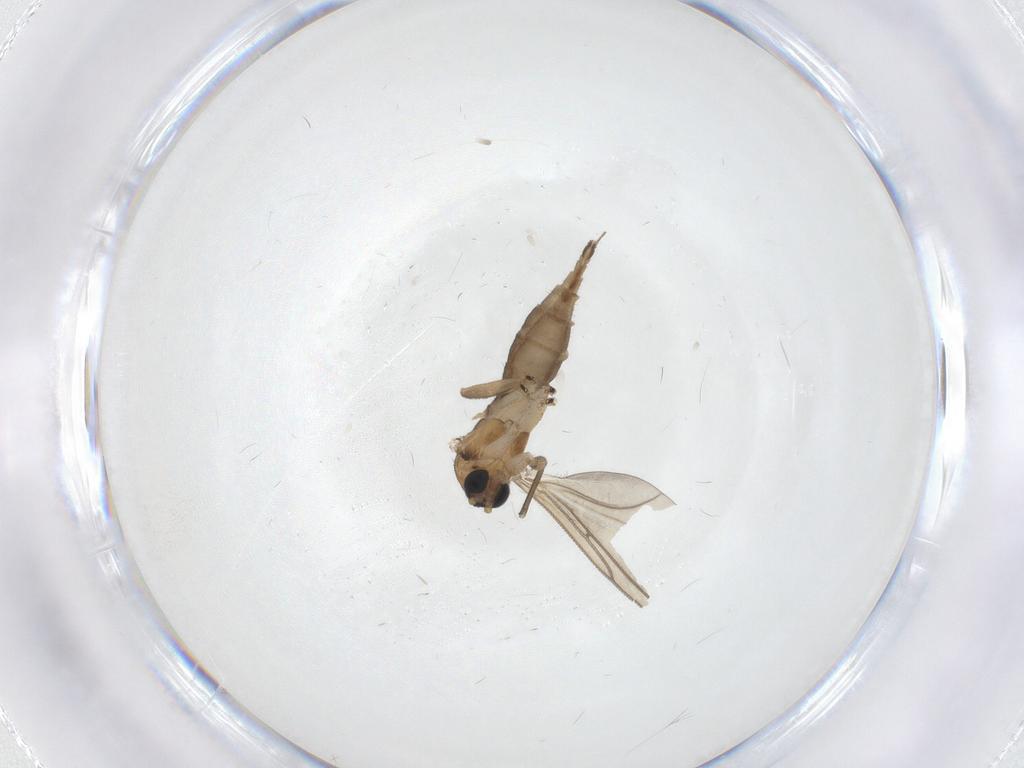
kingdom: Animalia
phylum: Arthropoda
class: Insecta
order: Diptera
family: Sciaridae
